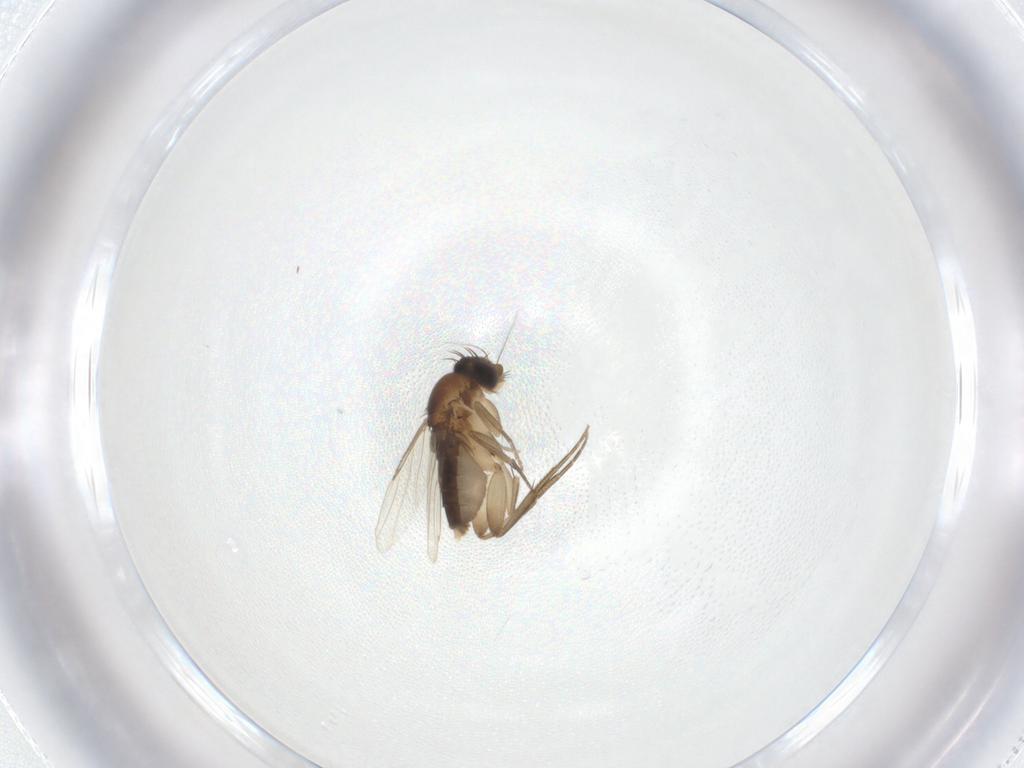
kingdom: Animalia
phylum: Arthropoda
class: Insecta
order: Diptera
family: Phoridae
